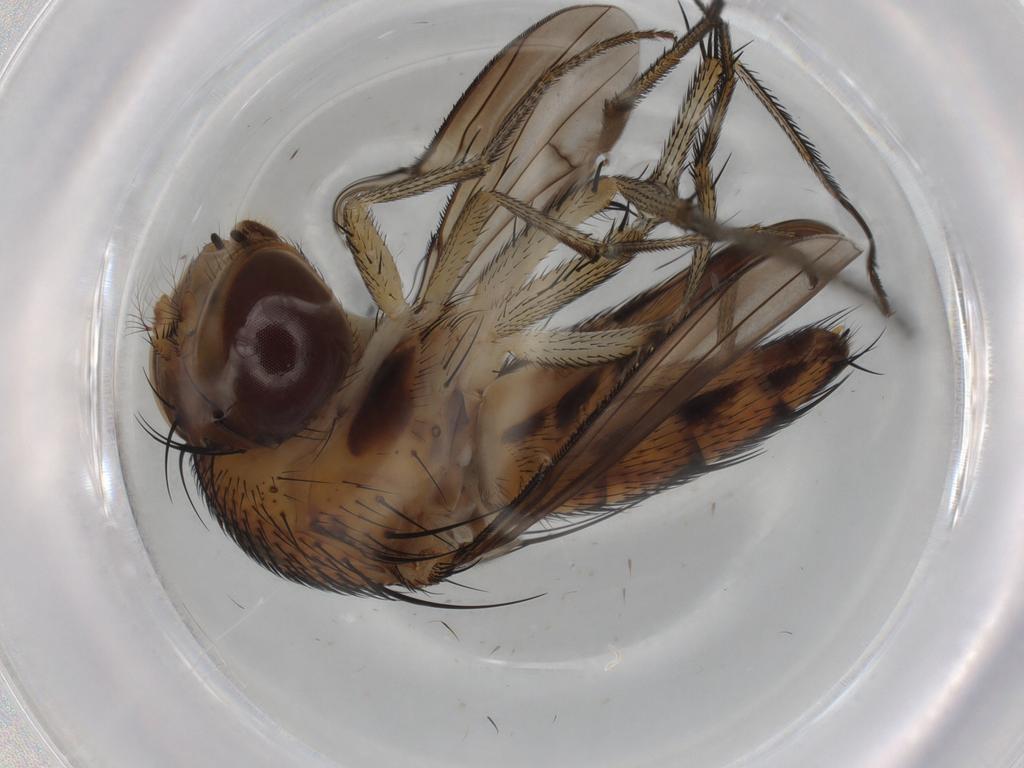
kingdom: Animalia
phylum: Arthropoda
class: Insecta
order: Diptera
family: Curtonotidae
